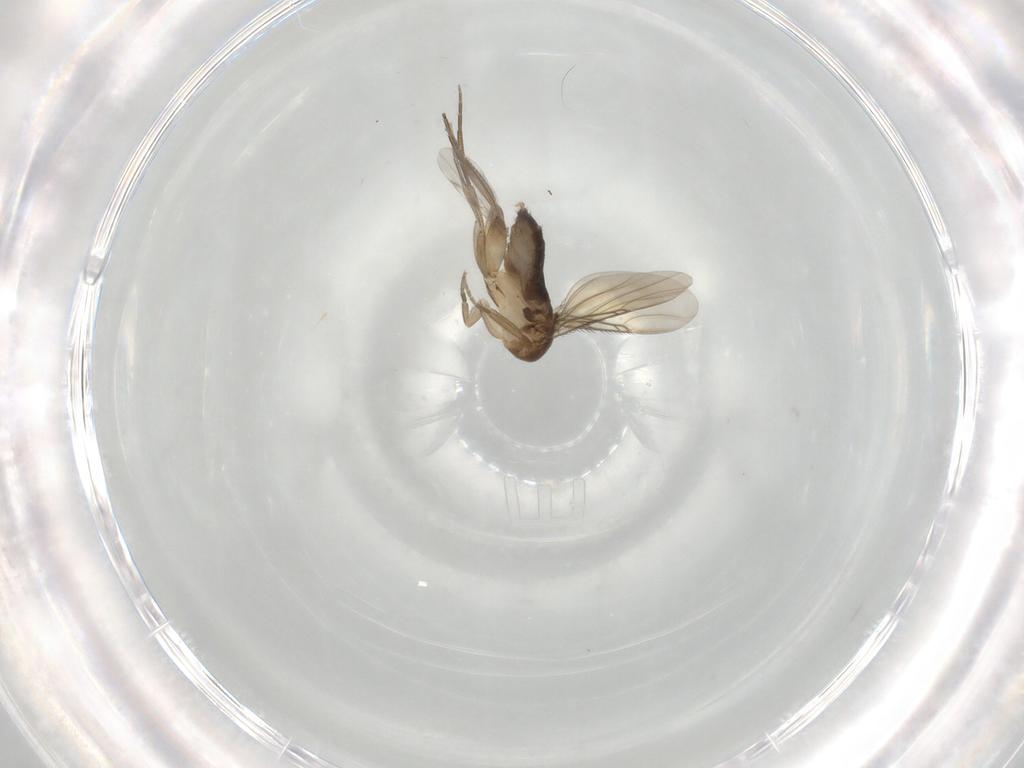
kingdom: Animalia
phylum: Arthropoda
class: Insecta
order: Diptera
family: Phoridae
